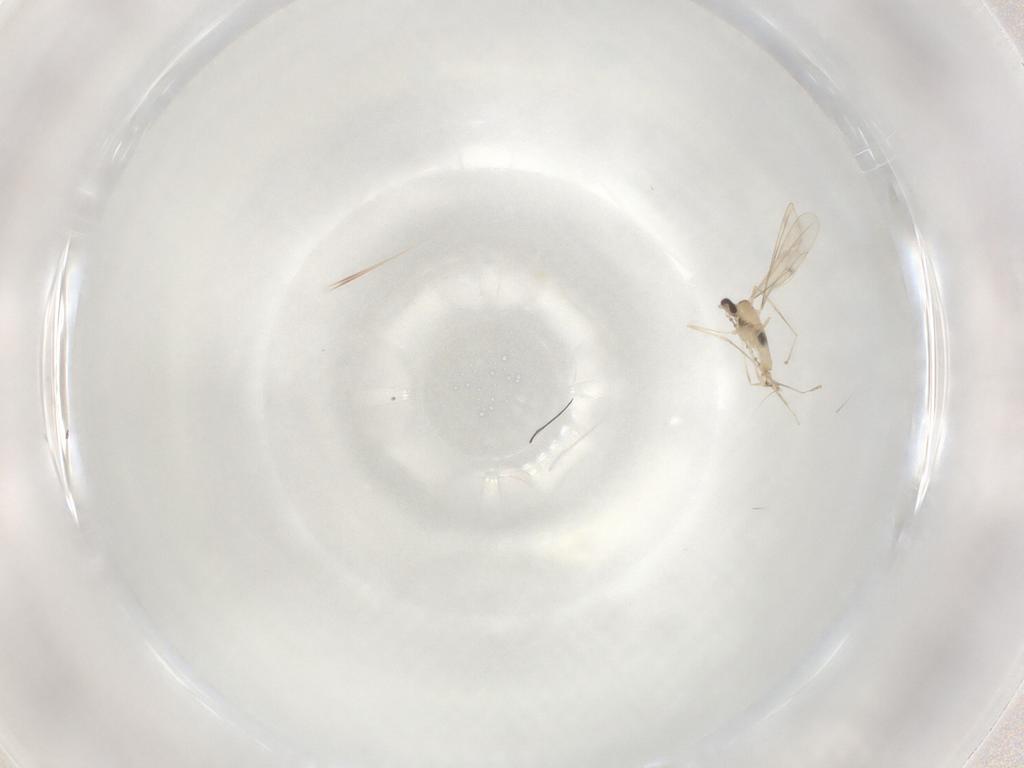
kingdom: Animalia
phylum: Arthropoda
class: Insecta
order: Diptera
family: Cecidomyiidae
